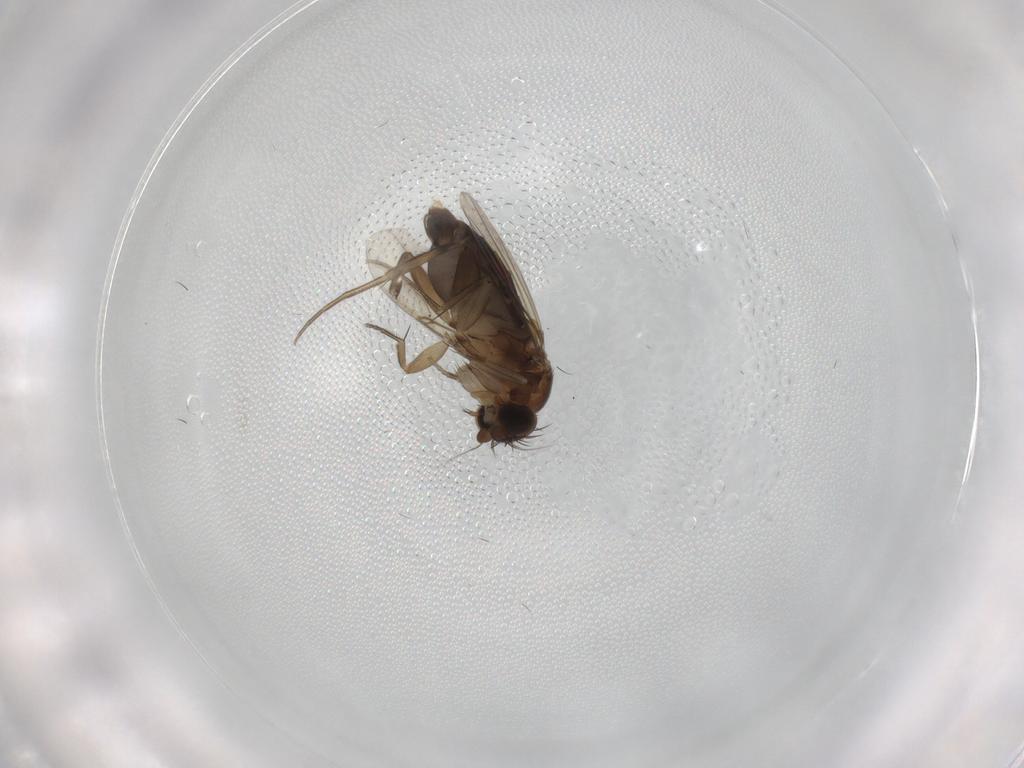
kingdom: Animalia
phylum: Arthropoda
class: Insecta
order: Diptera
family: Phoridae
